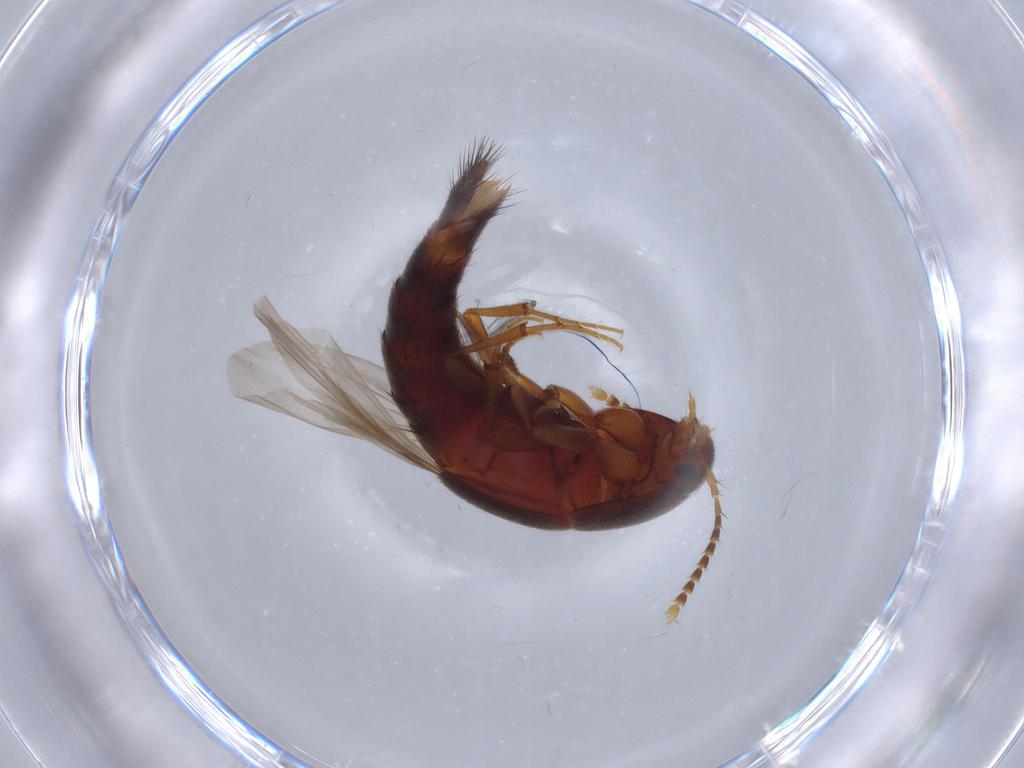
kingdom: Animalia
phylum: Arthropoda
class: Insecta
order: Coleoptera
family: Staphylinidae
